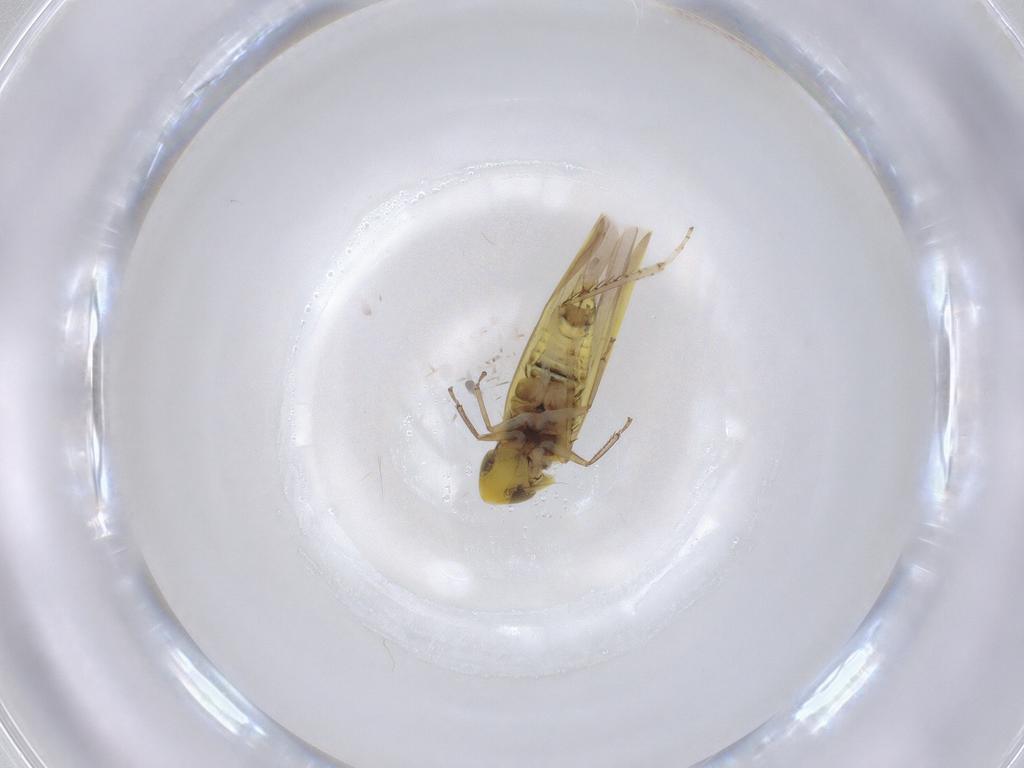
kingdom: Animalia
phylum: Arthropoda
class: Insecta
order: Hemiptera
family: Cicadellidae
